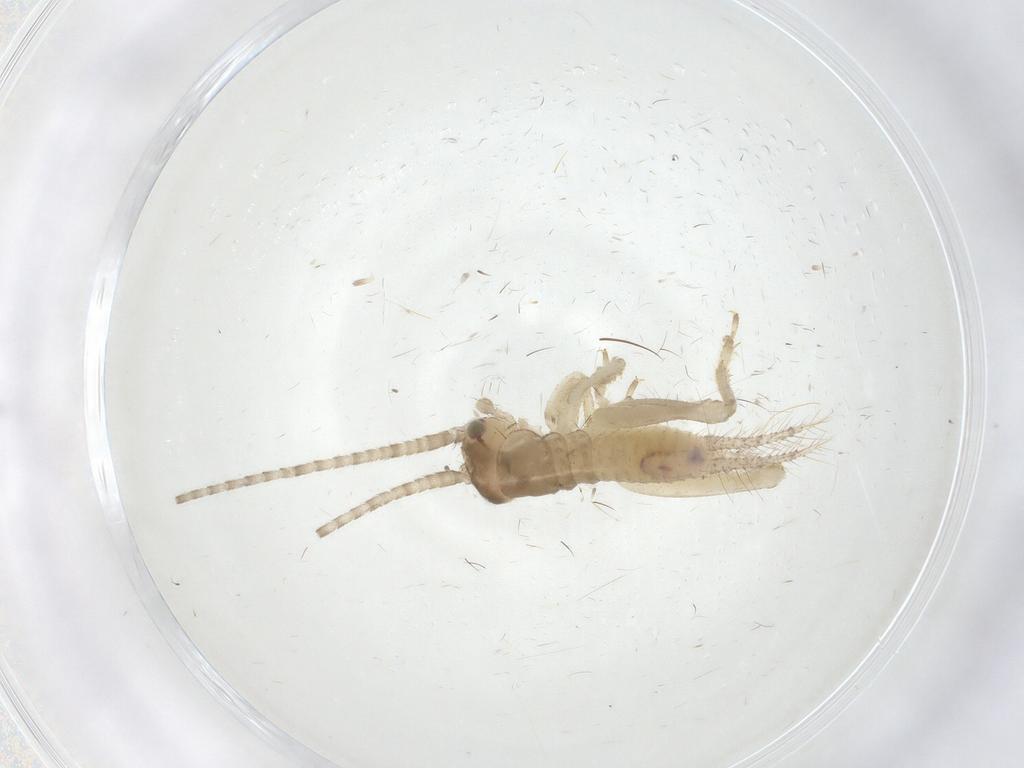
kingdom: Animalia
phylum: Arthropoda
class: Insecta
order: Orthoptera
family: Gryllidae
